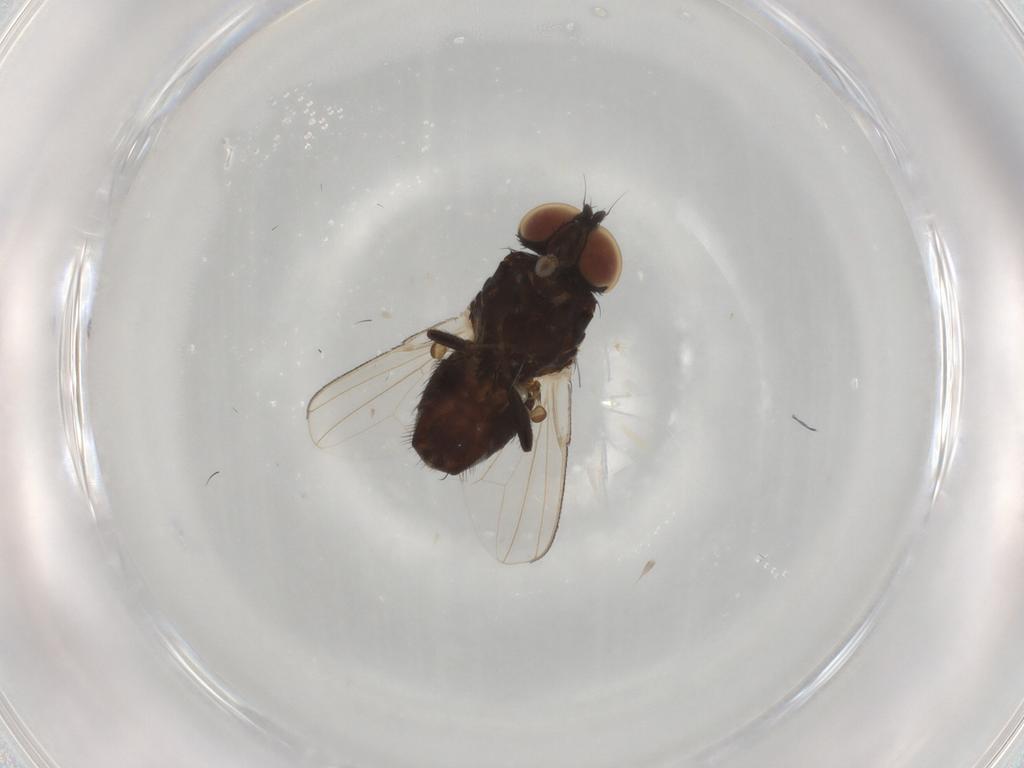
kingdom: Animalia
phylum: Arthropoda
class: Insecta
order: Diptera
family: Milichiidae
